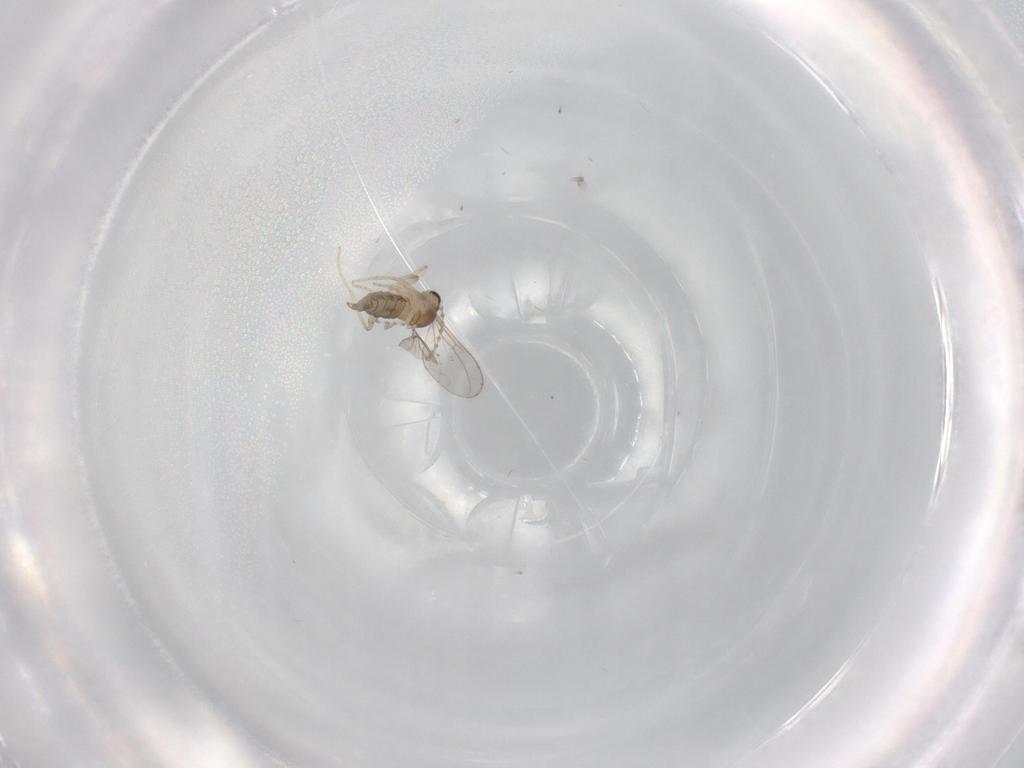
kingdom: Animalia
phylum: Arthropoda
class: Insecta
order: Diptera
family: Cecidomyiidae
